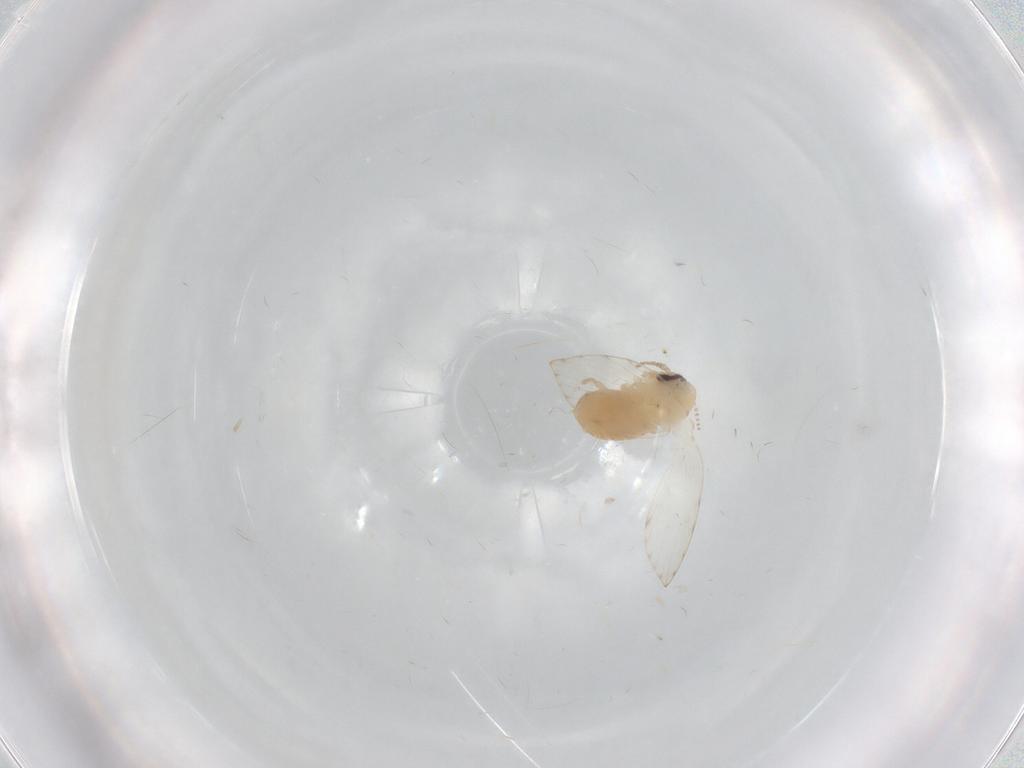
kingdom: Animalia
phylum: Arthropoda
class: Insecta
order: Diptera
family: Psychodidae
